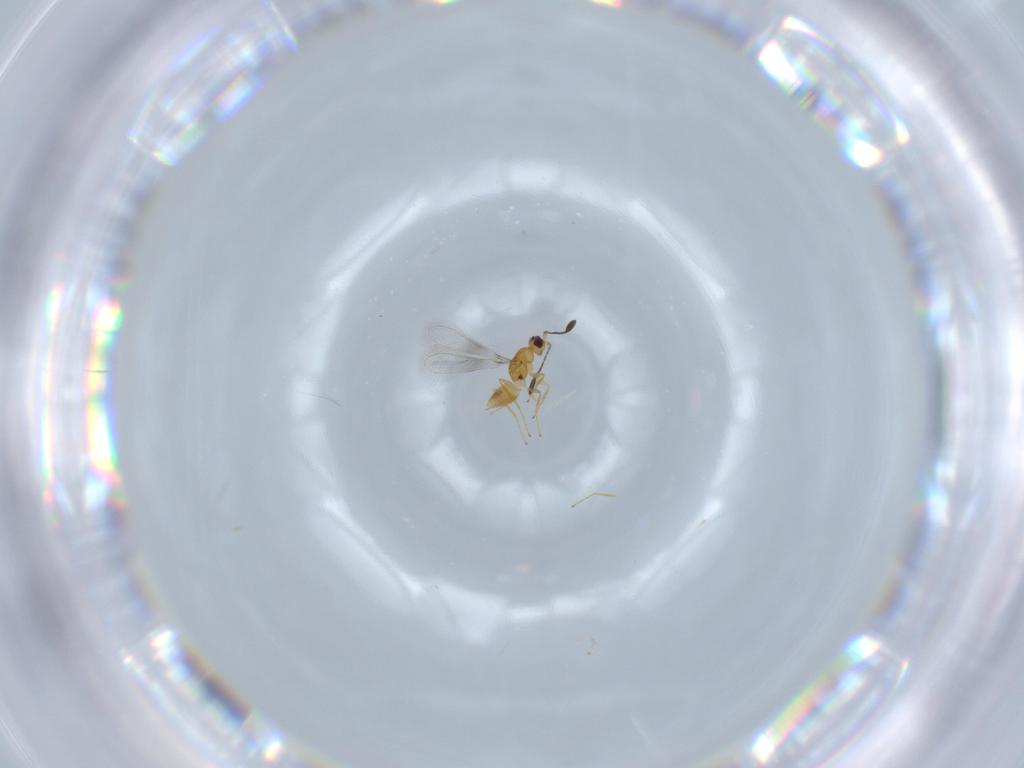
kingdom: Animalia
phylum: Arthropoda
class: Insecta
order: Hymenoptera
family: Mymaridae
